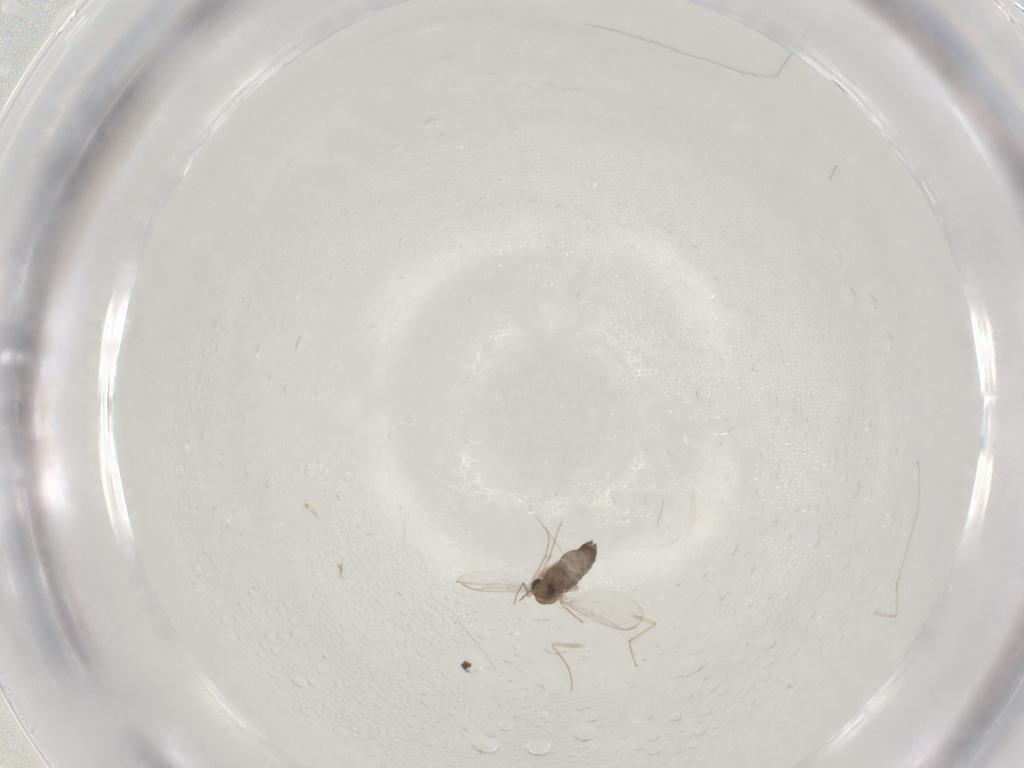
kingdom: Animalia
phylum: Arthropoda
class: Insecta
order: Diptera
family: Chironomidae
